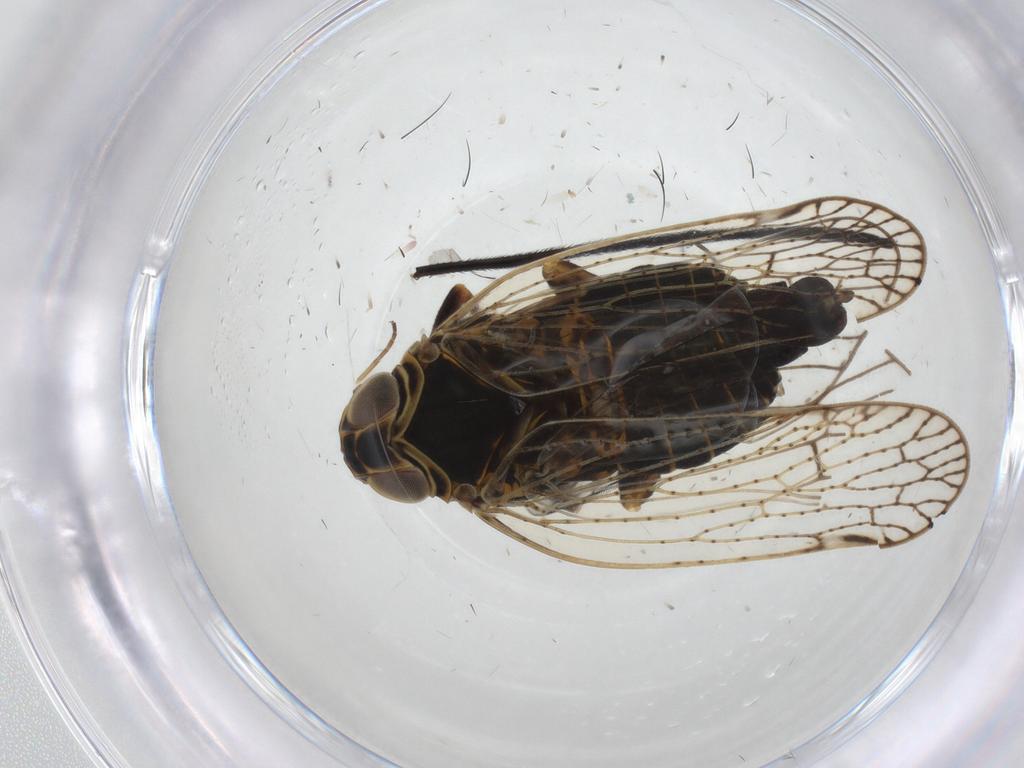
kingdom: Animalia
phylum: Arthropoda
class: Insecta
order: Hemiptera
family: Cixiidae
